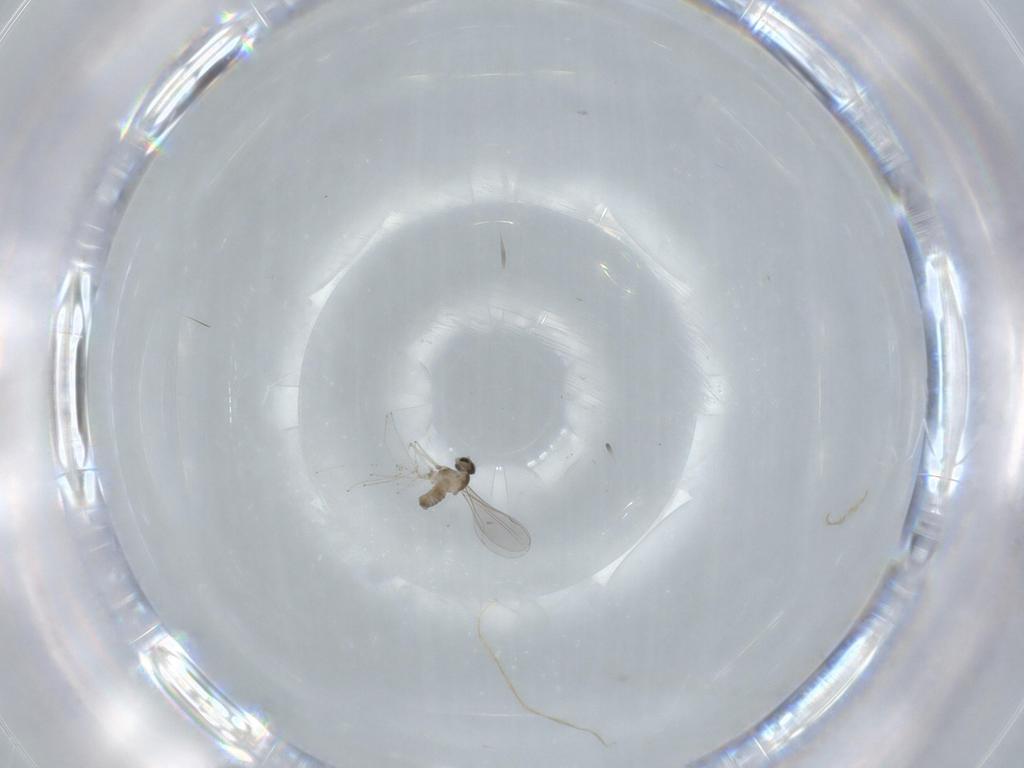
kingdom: Animalia
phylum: Arthropoda
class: Insecta
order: Diptera
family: Cecidomyiidae
